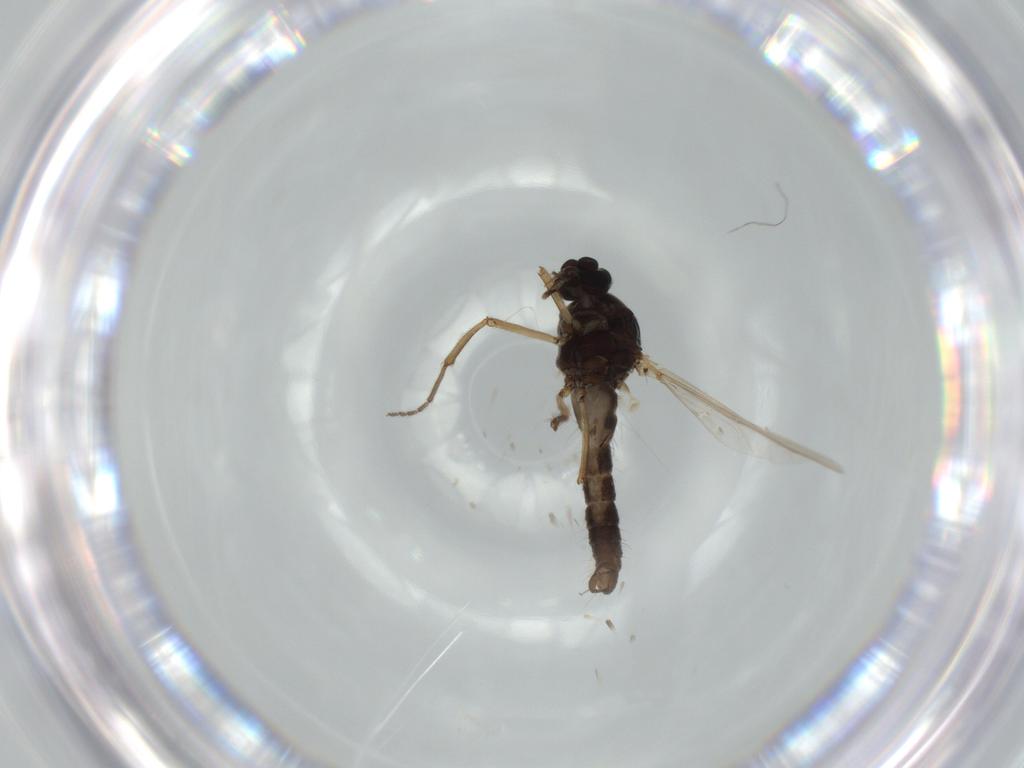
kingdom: Animalia
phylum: Arthropoda
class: Insecta
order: Diptera
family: Ceratopogonidae
